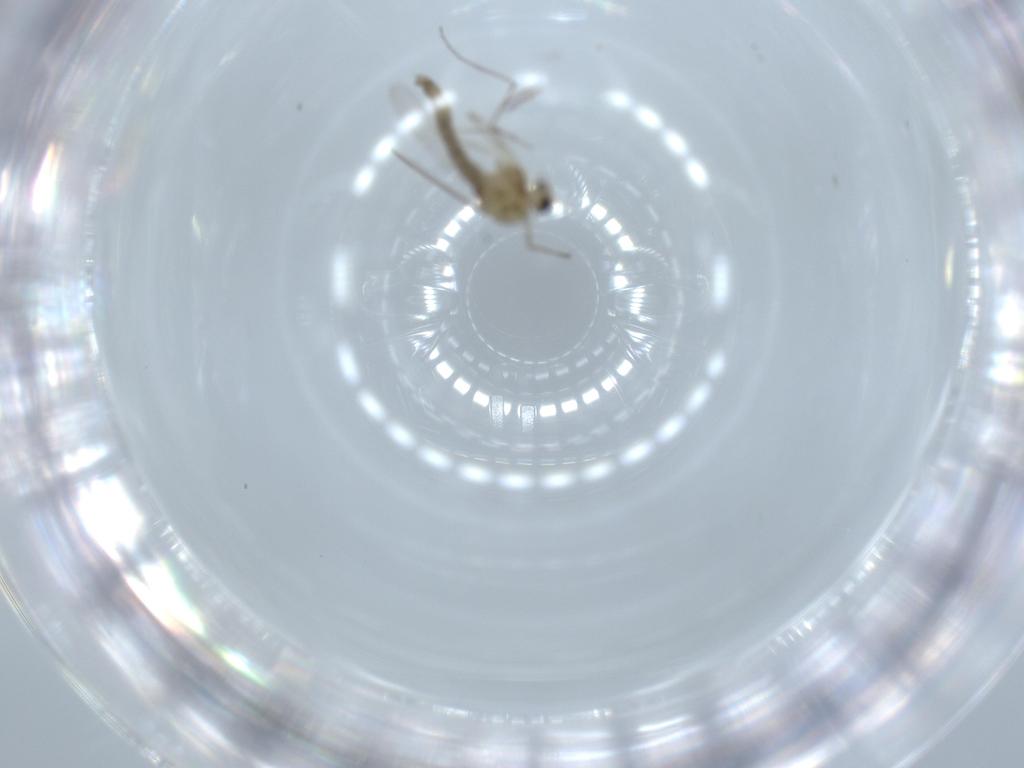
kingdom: Animalia
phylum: Arthropoda
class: Insecta
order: Diptera
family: Chironomidae
